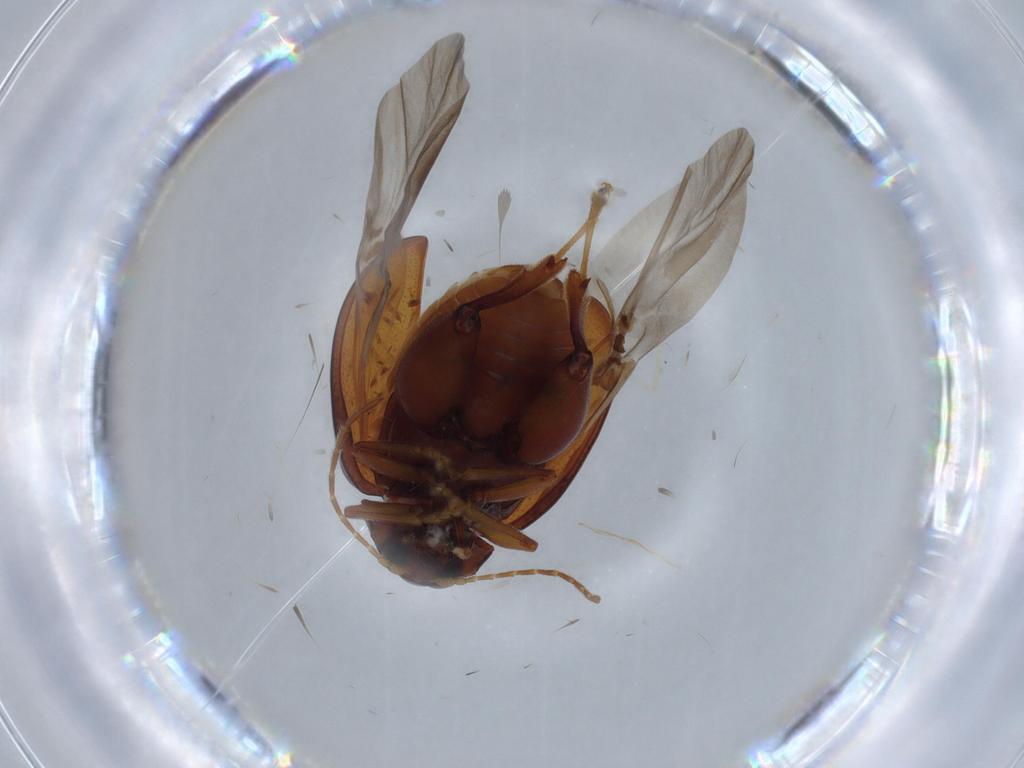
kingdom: Animalia
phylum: Arthropoda
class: Insecta
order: Coleoptera
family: Chrysomelidae
